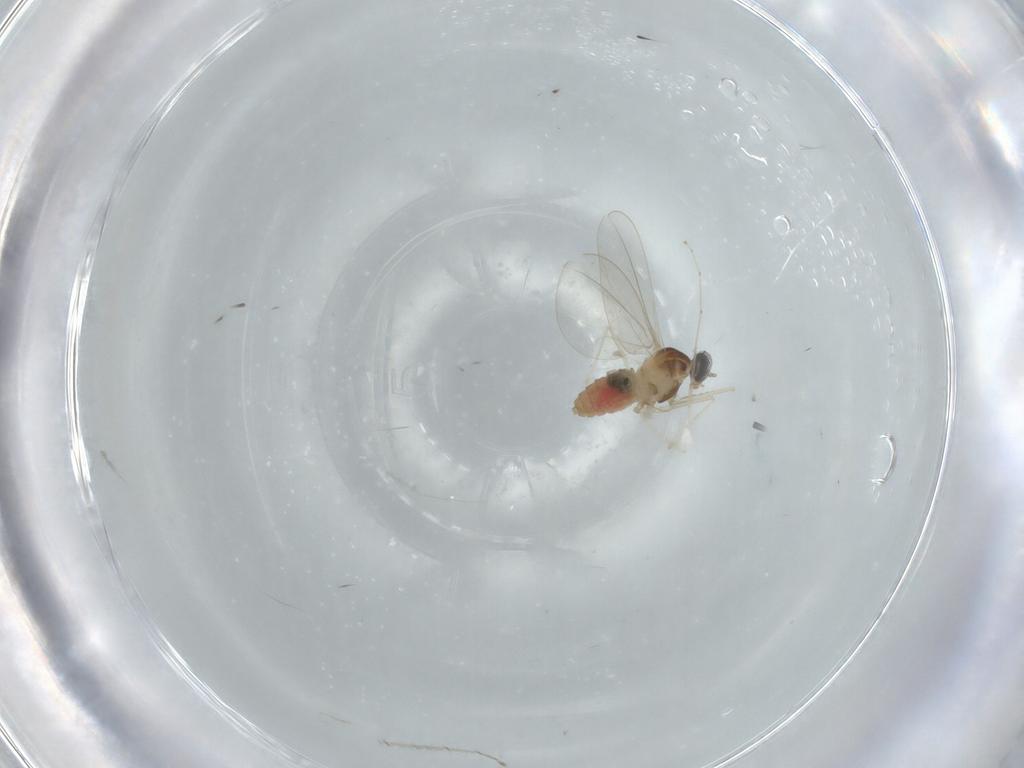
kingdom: Animalia
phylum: Arthropoda
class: Insecta
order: Diptera
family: Cecidomyiidae
